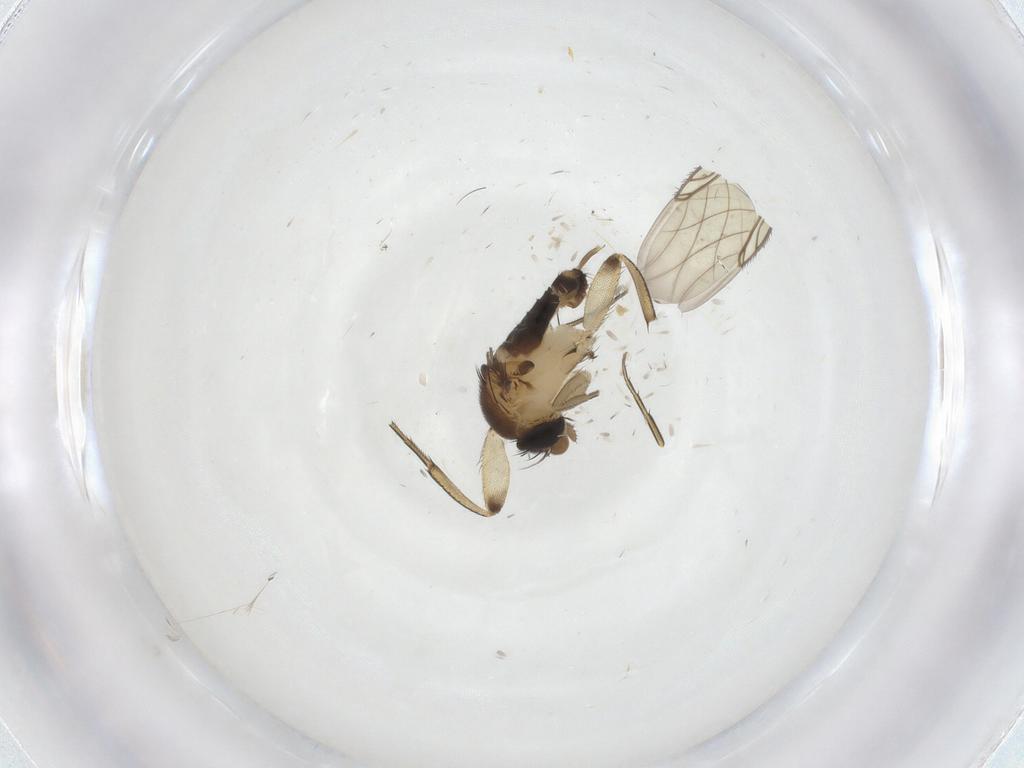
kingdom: Animalia
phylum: Arthropoda
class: Insecta
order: Diptera
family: Phoridae
